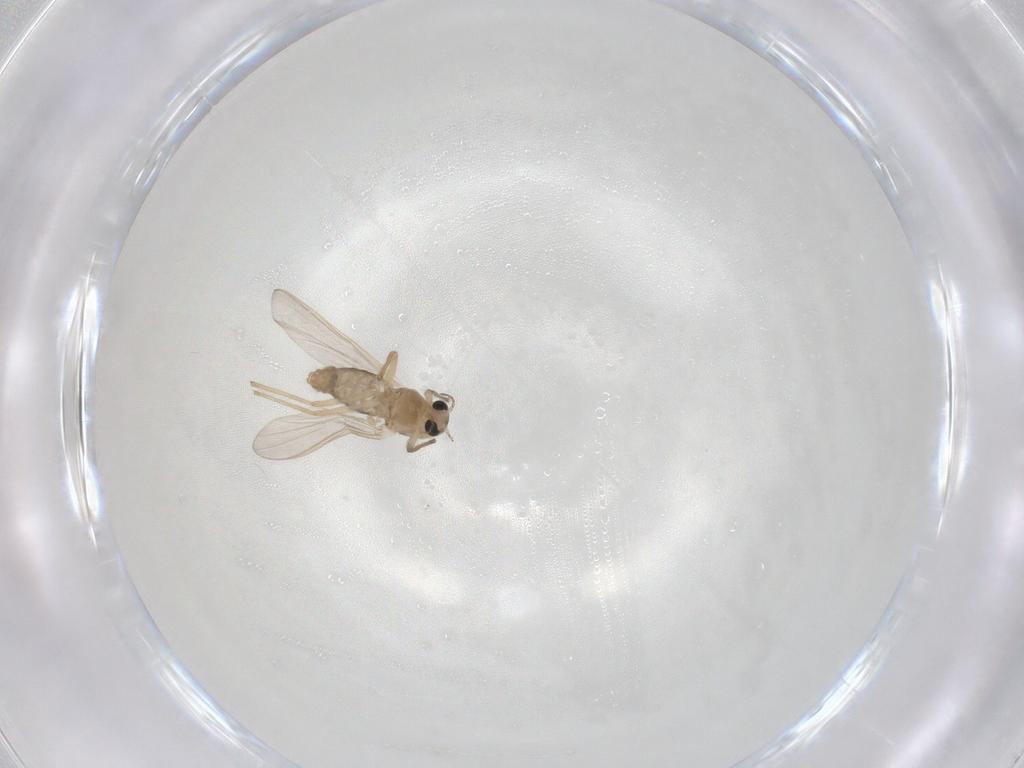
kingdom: Animalia
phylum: Arthropoda
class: Insecta
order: Diptera
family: Chironomidae
